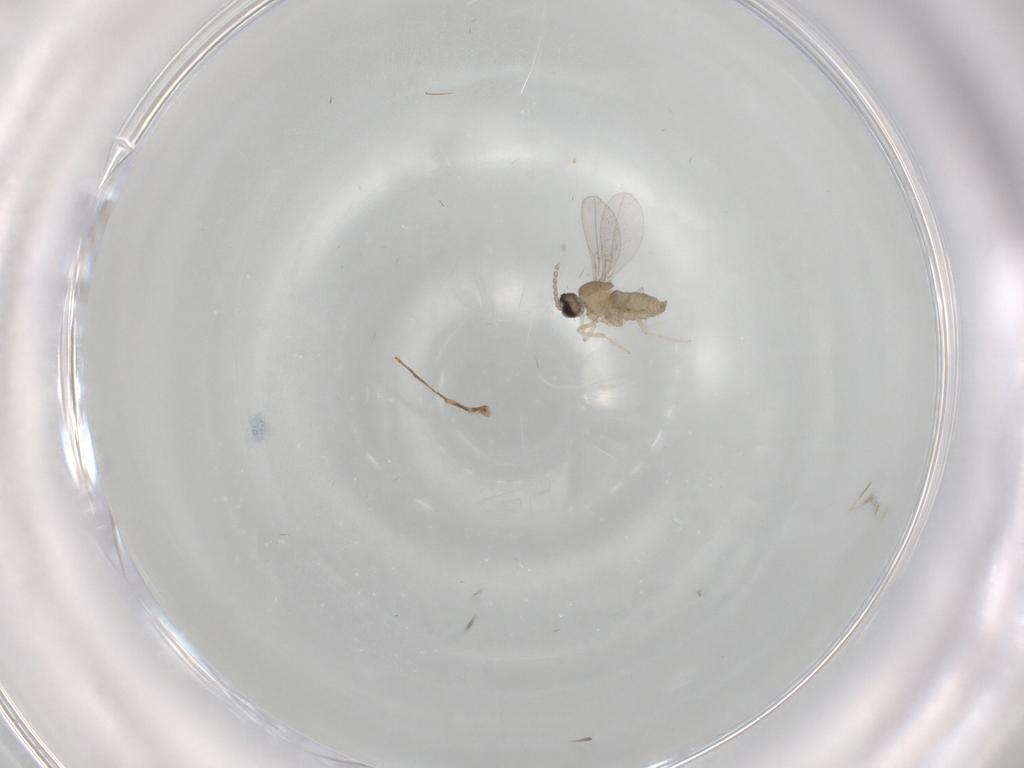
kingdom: Animalia
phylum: Arthropoda
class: Insecta
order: Diptera
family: Cecidomyiidae
